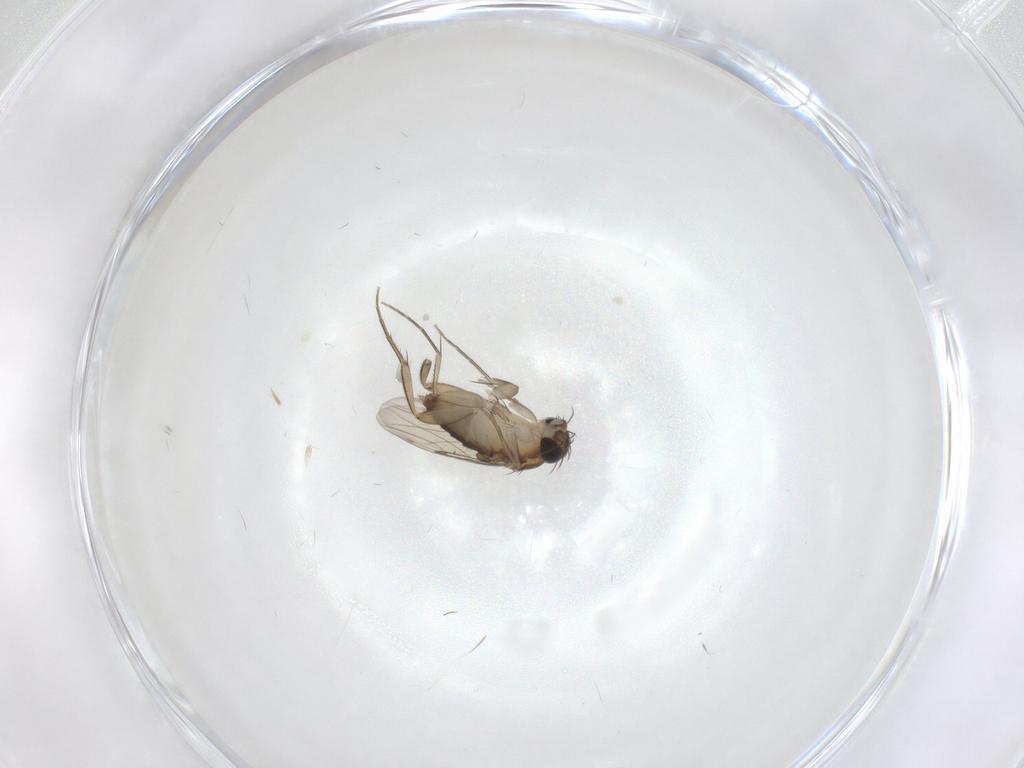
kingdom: Animalia
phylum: Arthropoda
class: Insecta
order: Diptera
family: Phoridae
